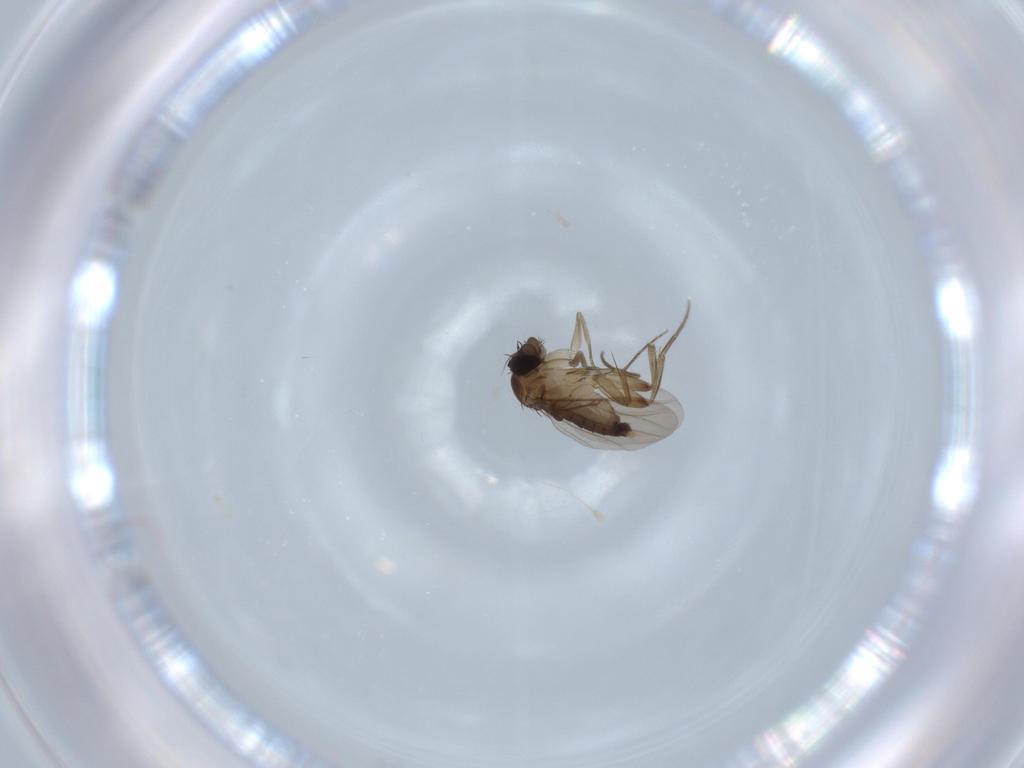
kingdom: Animalia
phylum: Arthropoda
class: Insecta
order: Diptera
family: Phoridae
